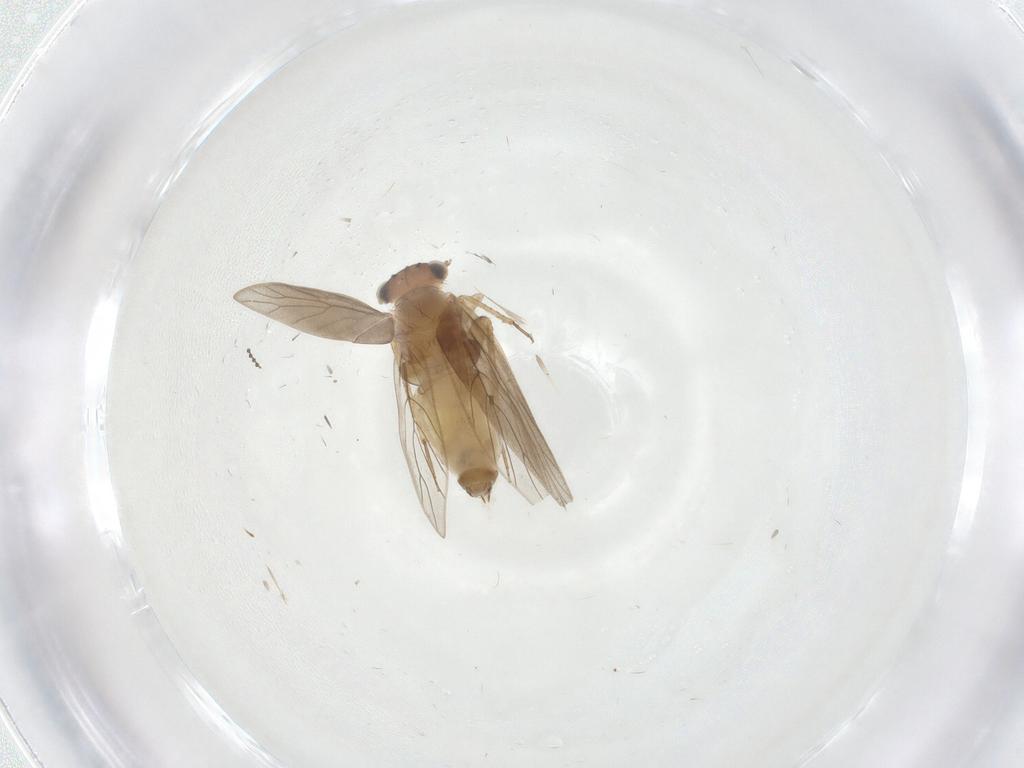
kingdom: Animalia
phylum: Arthropoda
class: Insecta
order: Psocodea
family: Lepidopsocidae
